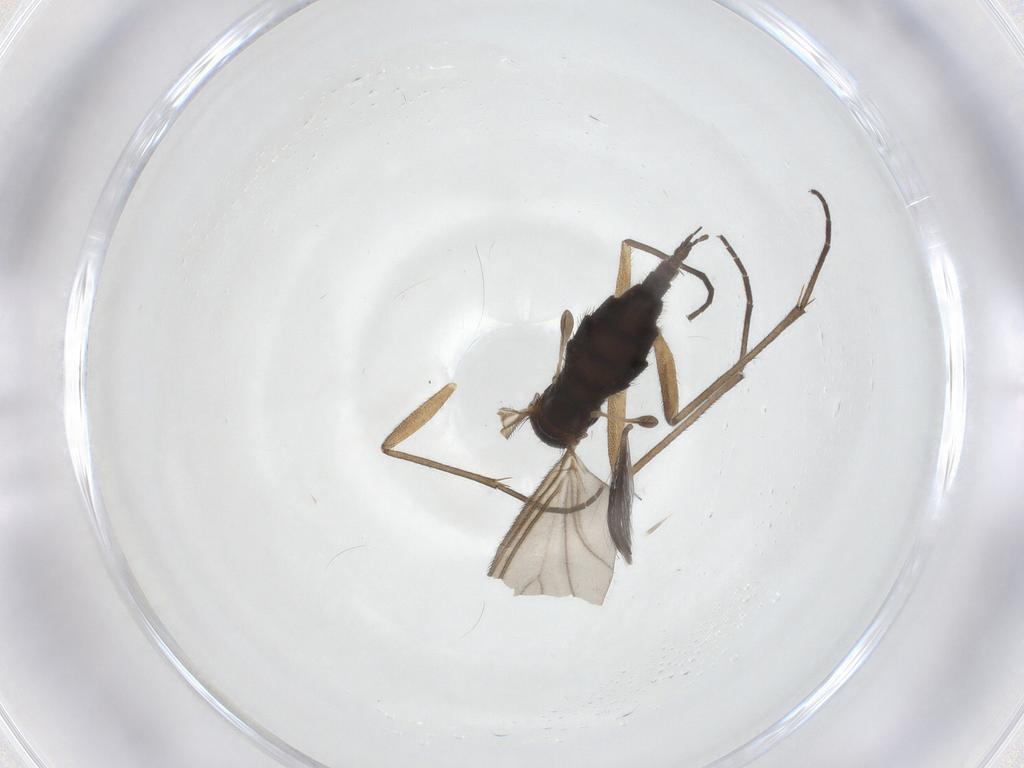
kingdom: Animalia
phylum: Arthropoda
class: Insecta
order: Diptera
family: Sciaridae
